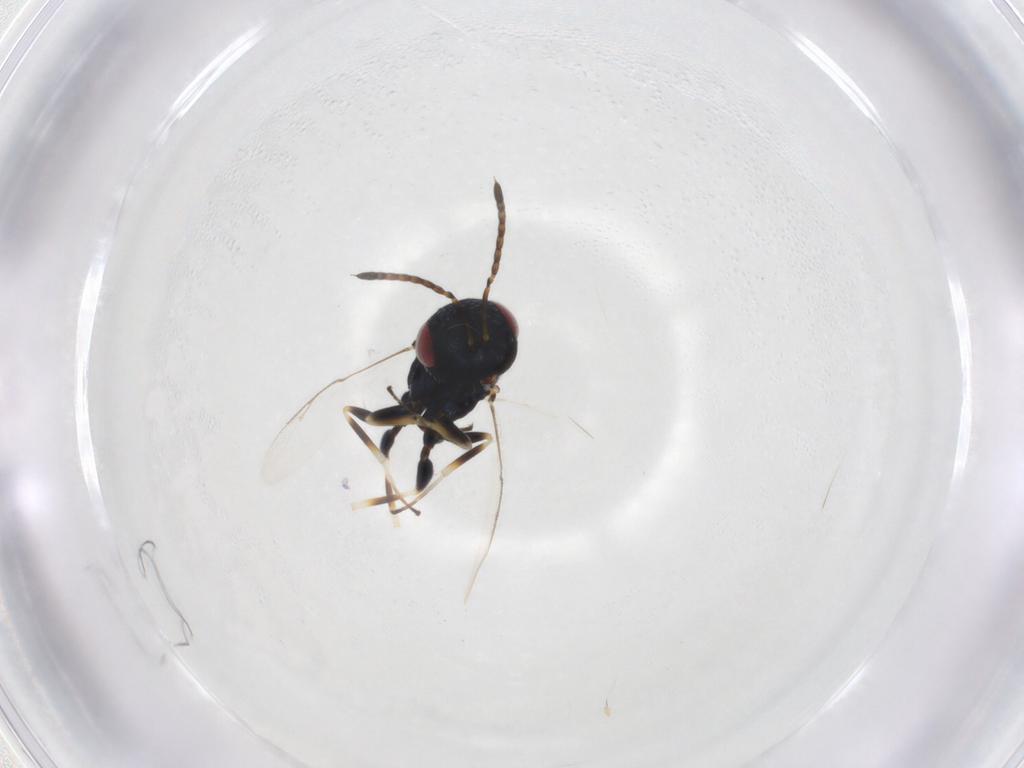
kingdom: Animalia
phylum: Arthropoda
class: Insecta
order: Hymenoptera
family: Pteromalidae
